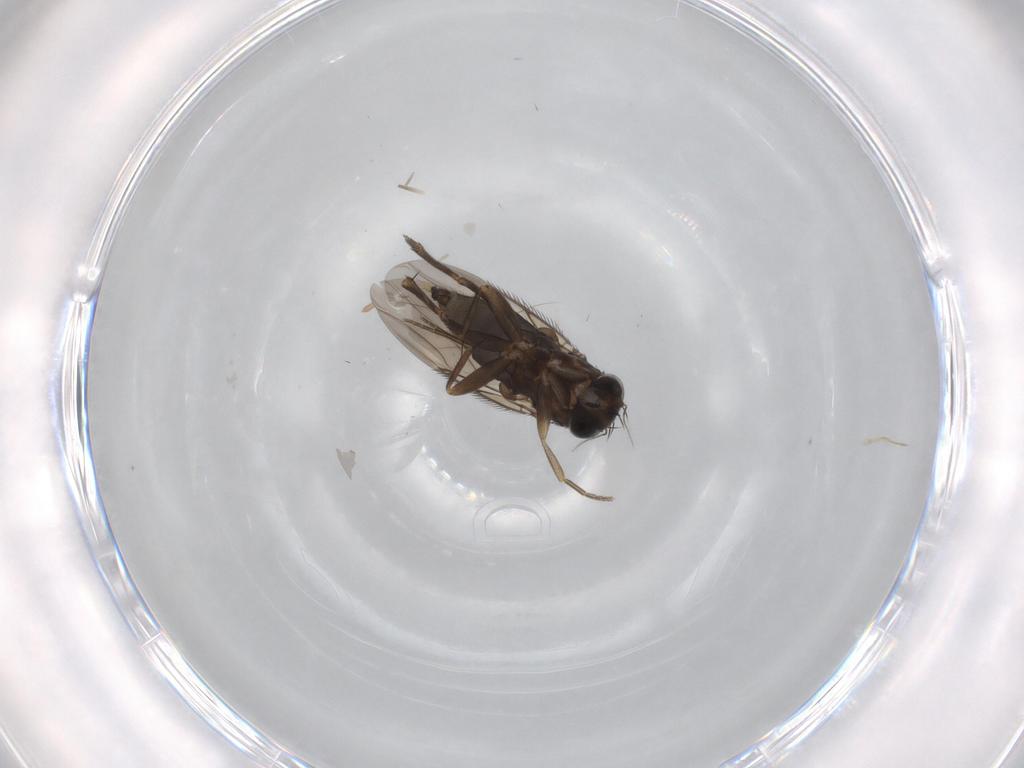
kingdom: Animalia
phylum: Arthropoda
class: Insecta
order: Diptera
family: Phoridae
